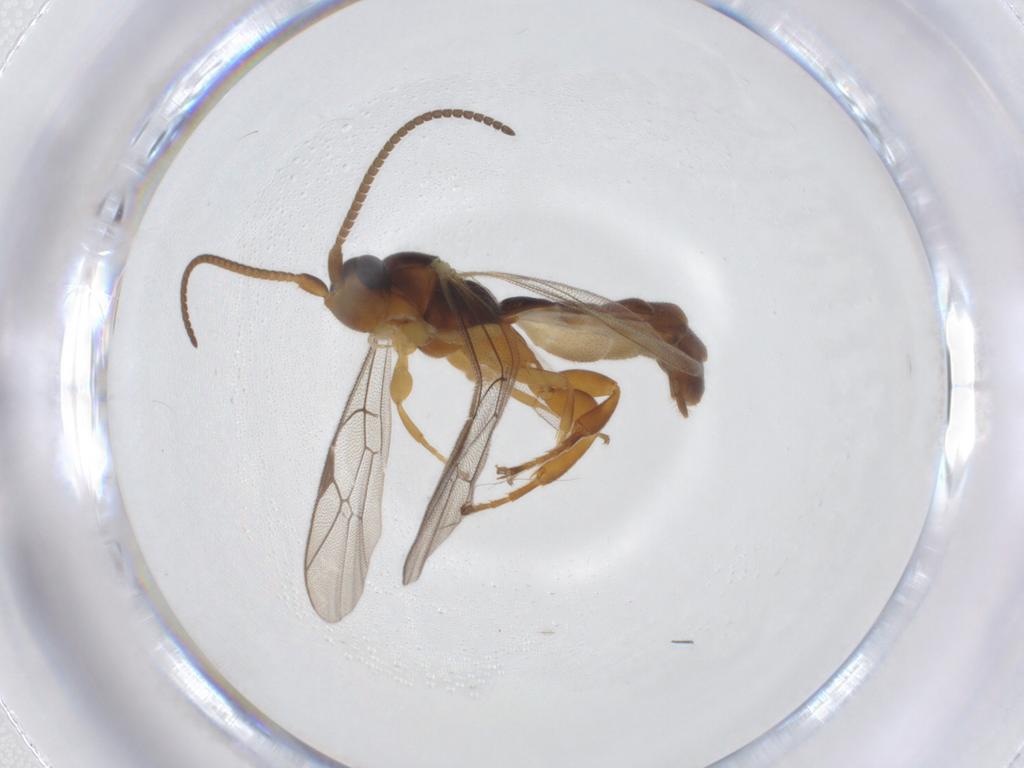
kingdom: Animalia
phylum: Arthropoda
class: Insecta
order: Hymenoptera
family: Ichneumonidae
